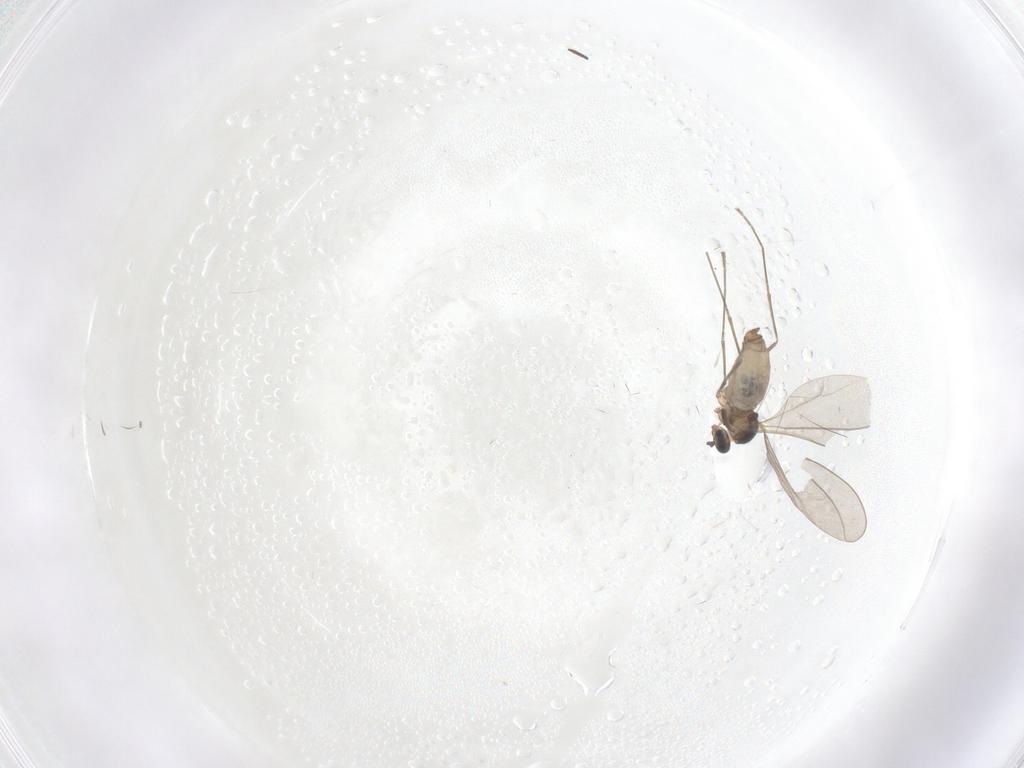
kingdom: Animalia
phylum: Arthropoda
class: Insecta
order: Diptera
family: Cecidomyiidae
